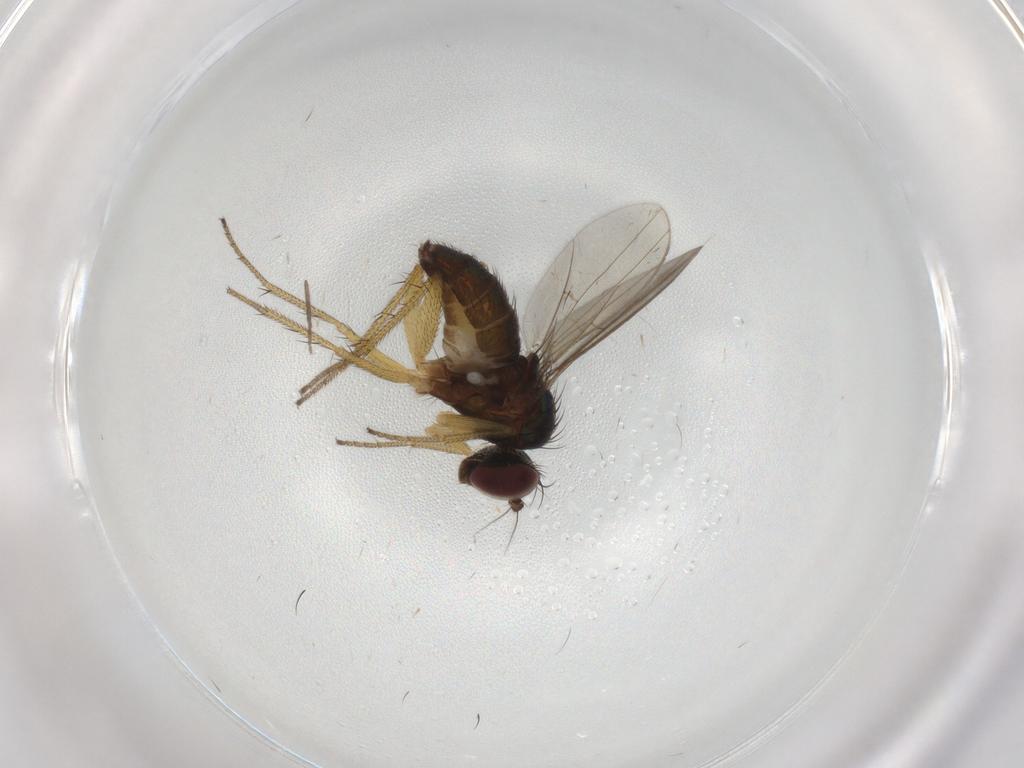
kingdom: Animalia
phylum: Arthropoda
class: Insecta
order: Diptera
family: Dolichopodidae
